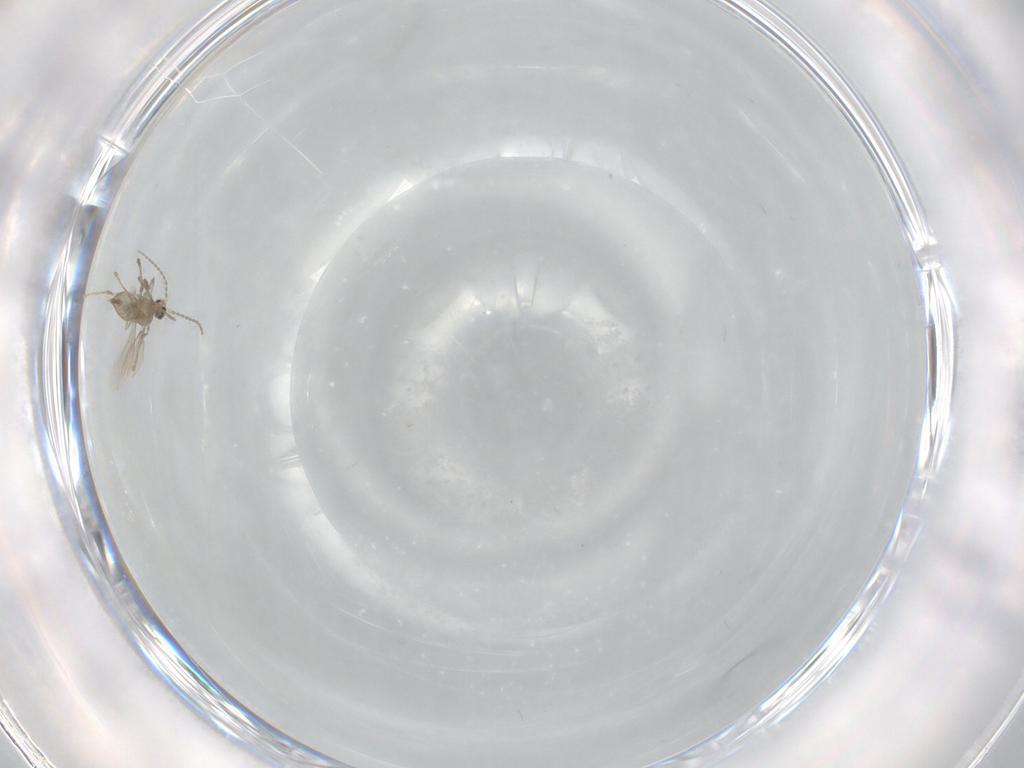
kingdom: Animalia
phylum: Arthropoda
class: Insecta
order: Diptera
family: Cecidomyiidae
